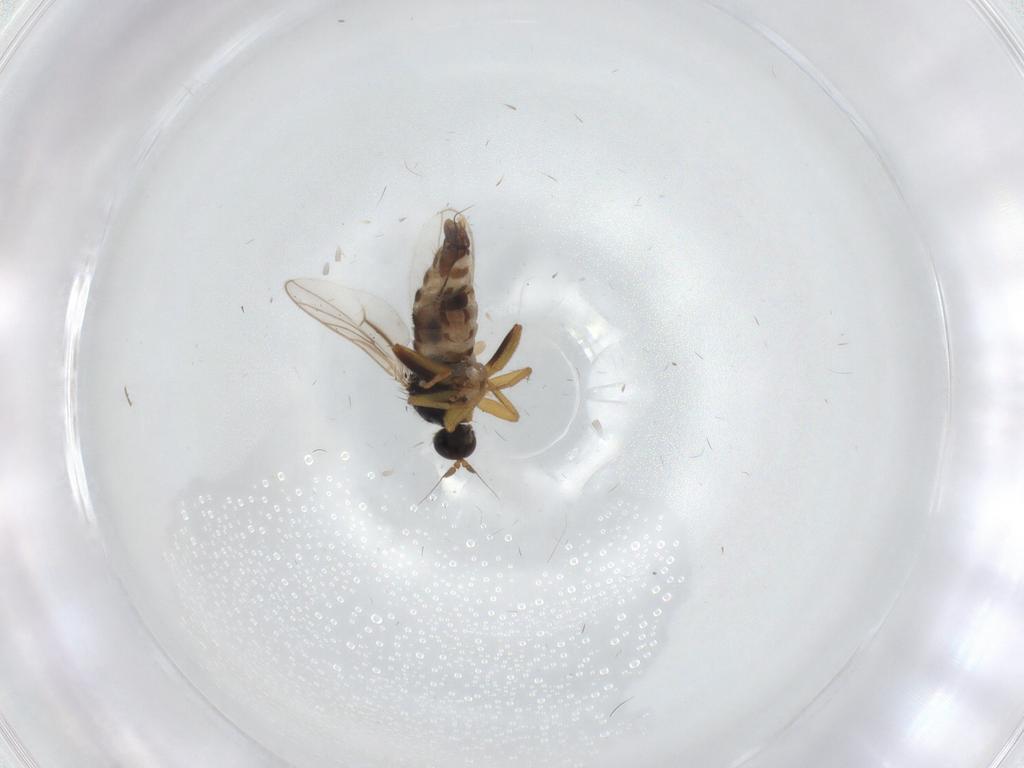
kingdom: Animalia
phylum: Arthropoda
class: Insecta
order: Diptera
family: Hybotidae
